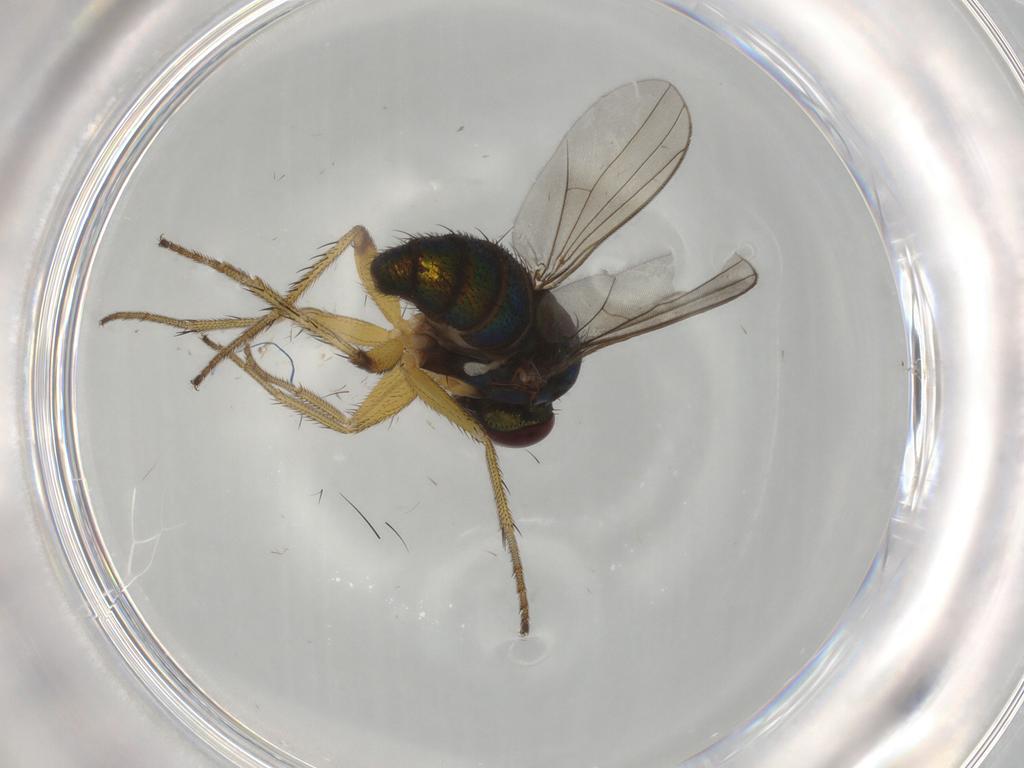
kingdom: Animalia
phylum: Arthropoda
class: Insecta
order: Diptera
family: Dolichopodidae
